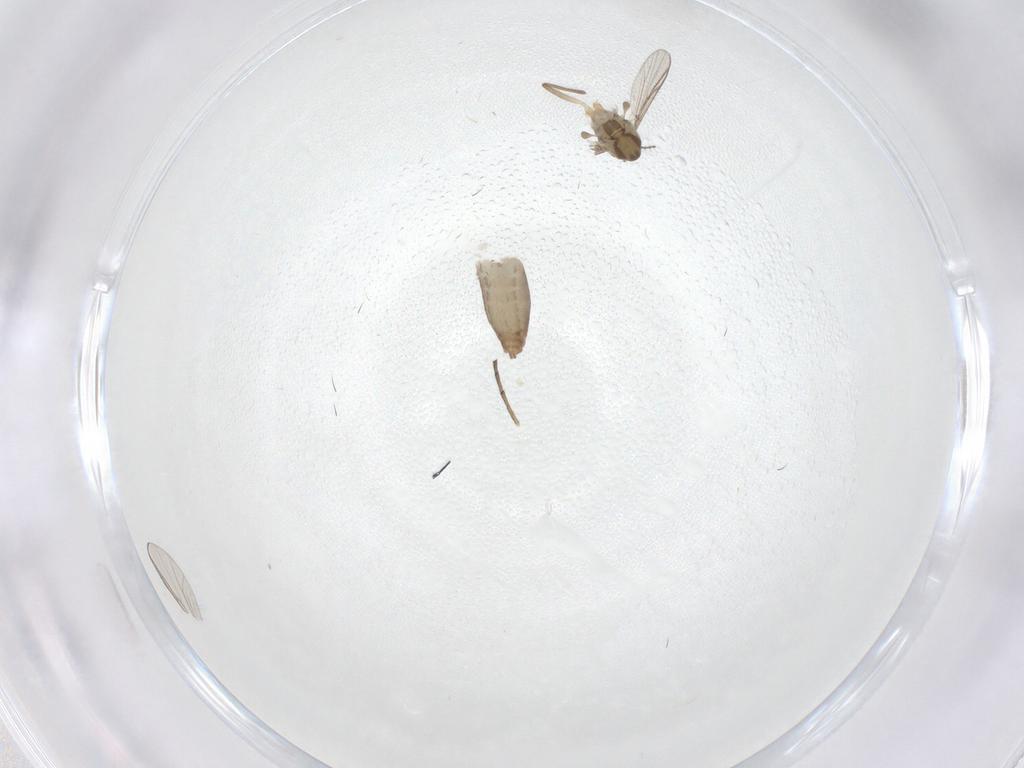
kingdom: Animalia
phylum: Arthropoda
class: Insecta
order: Diptera
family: Chironomidae
